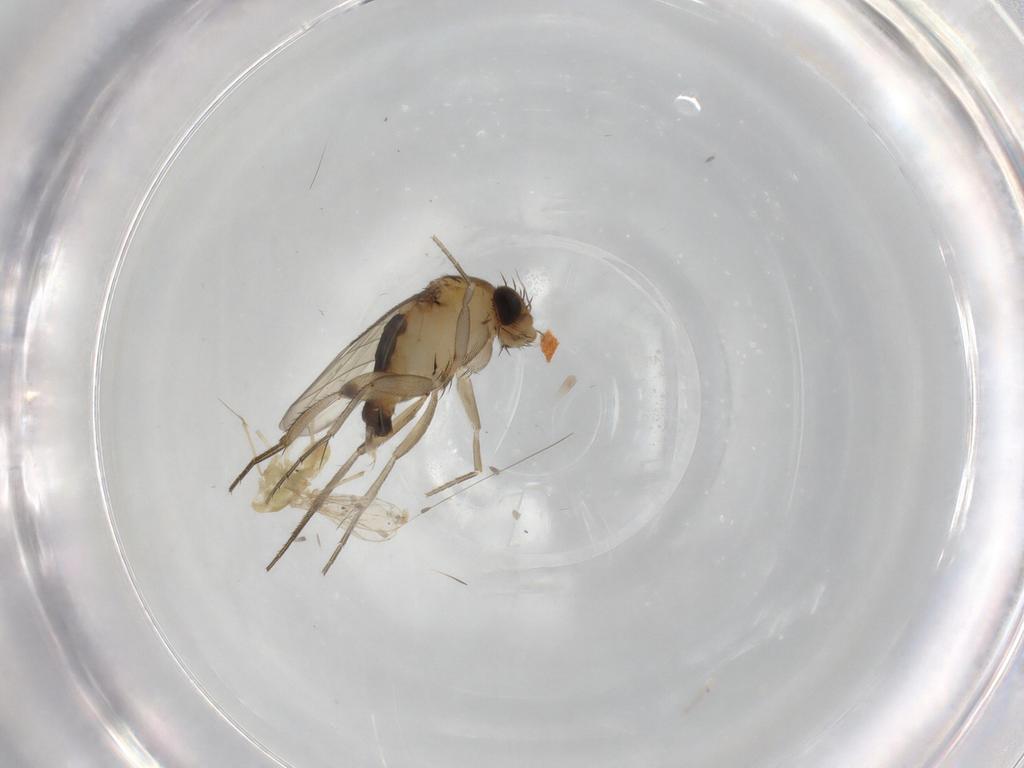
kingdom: Animalia
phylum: Arthropoda
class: Insecta
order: Diptera
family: Phoridae
